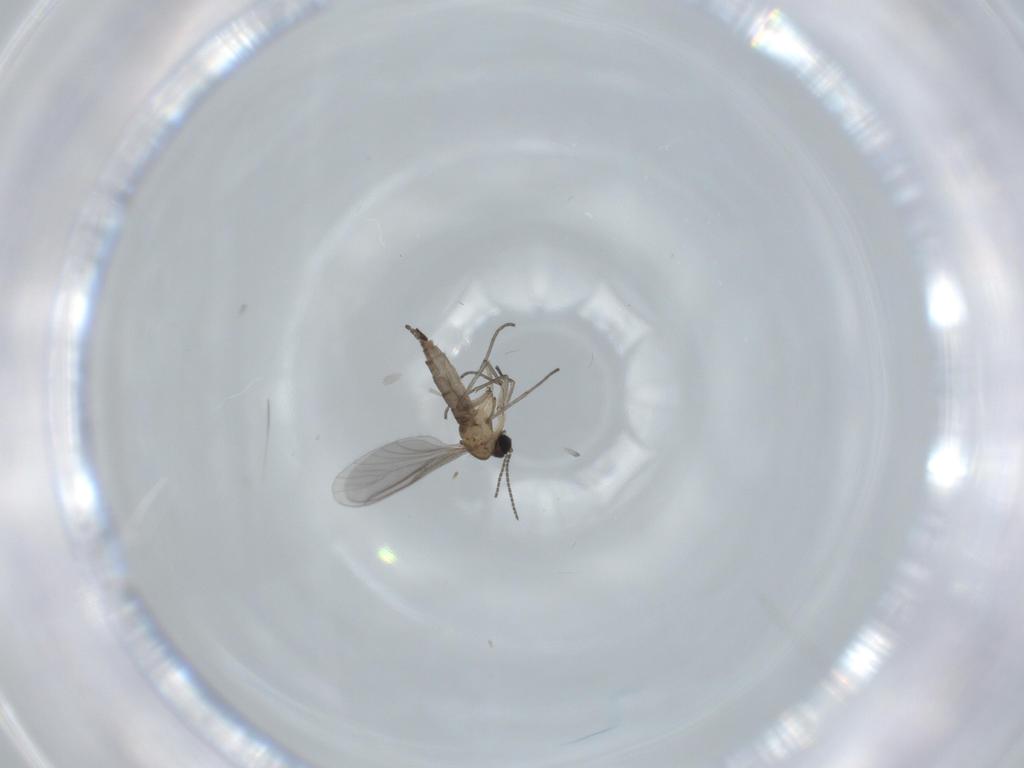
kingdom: Animalia
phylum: Arthropoda
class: Insecta
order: Diptera
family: Sciaridae
